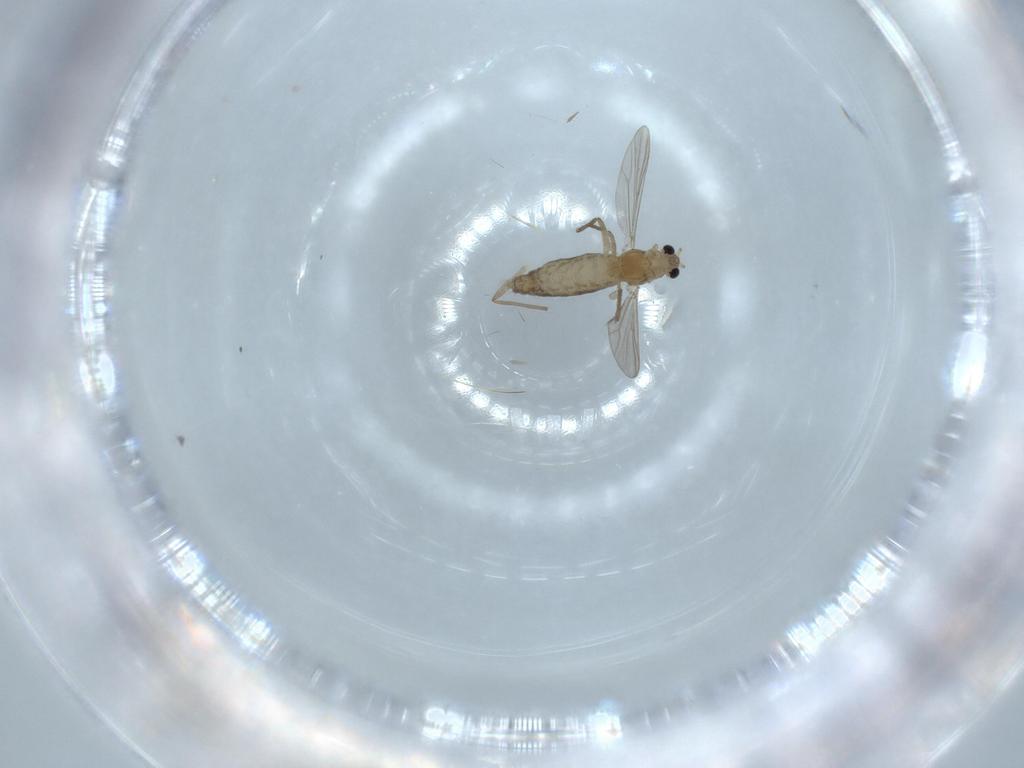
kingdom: Animalia
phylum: Arthropoda
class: Insecta
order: Diptera
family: Chironomidae
